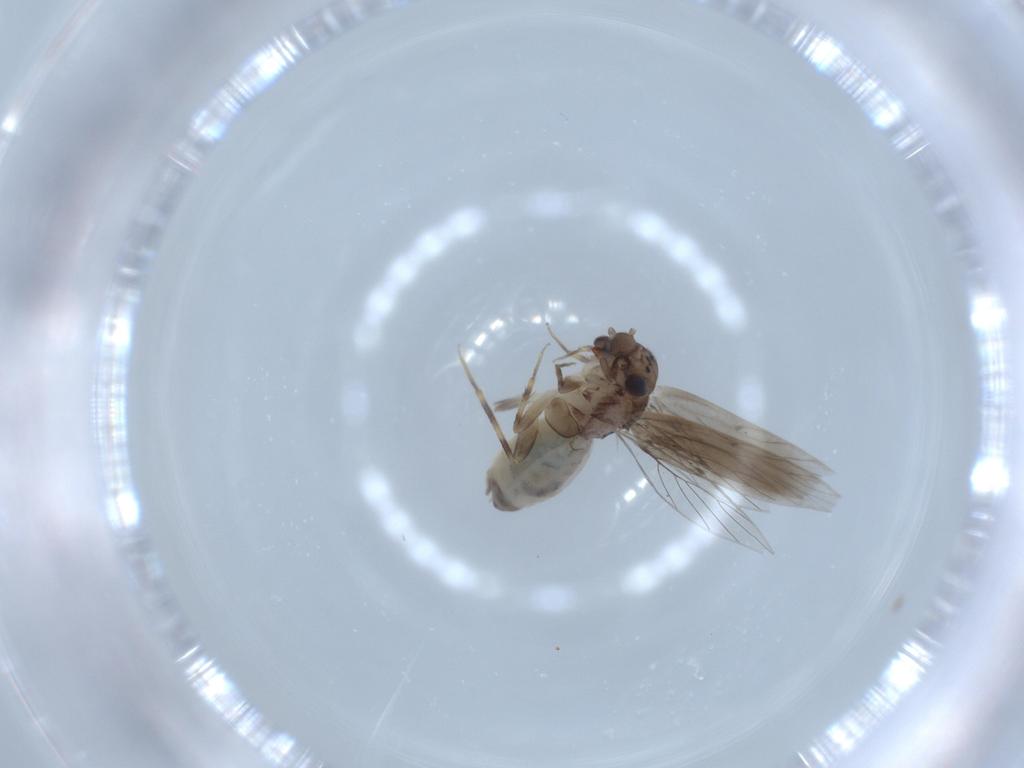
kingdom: Animalia
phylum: Arthropoda
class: Insecta
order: Psocodea
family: Lepidopsocidae
